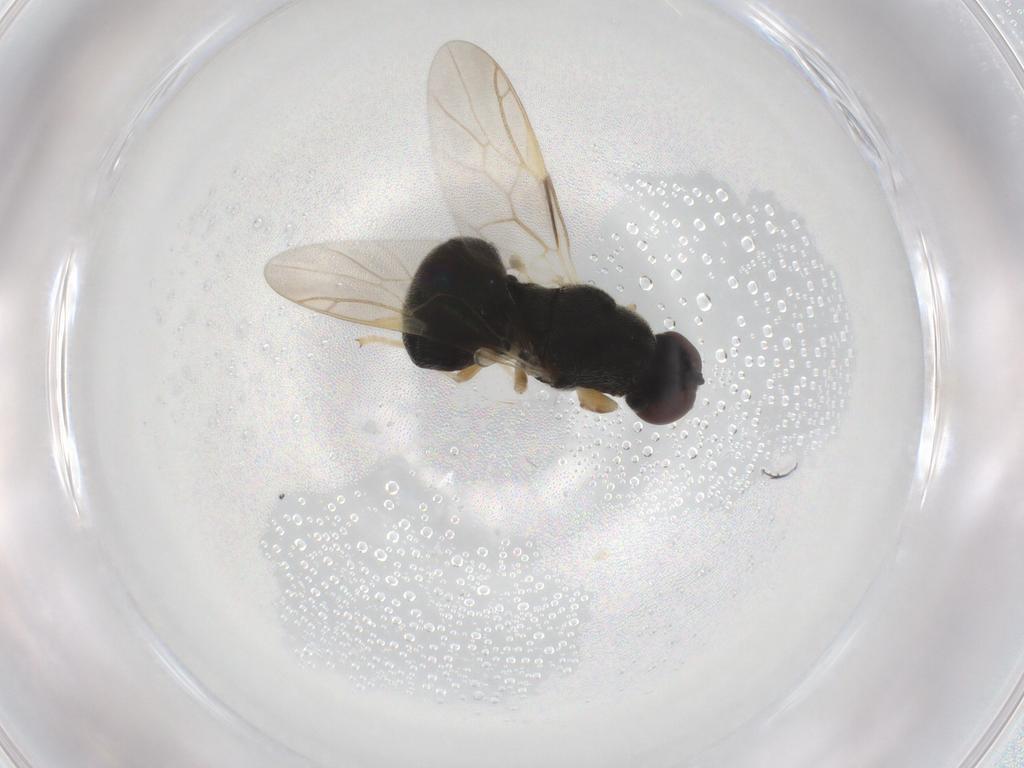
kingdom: Animalia
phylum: Arthropoda
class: Insecta
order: Diptera
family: Stratiomyidae
